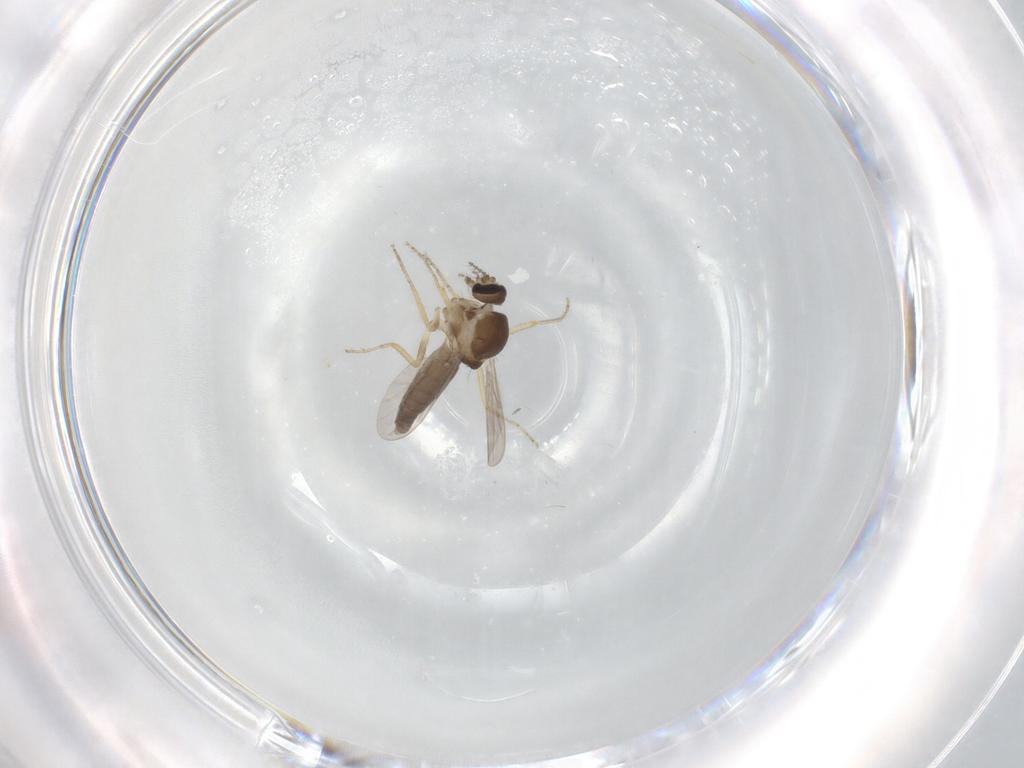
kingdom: Animalia
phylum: Arthropoda
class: Insecta
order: Diptera
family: Ceratopogonidae
